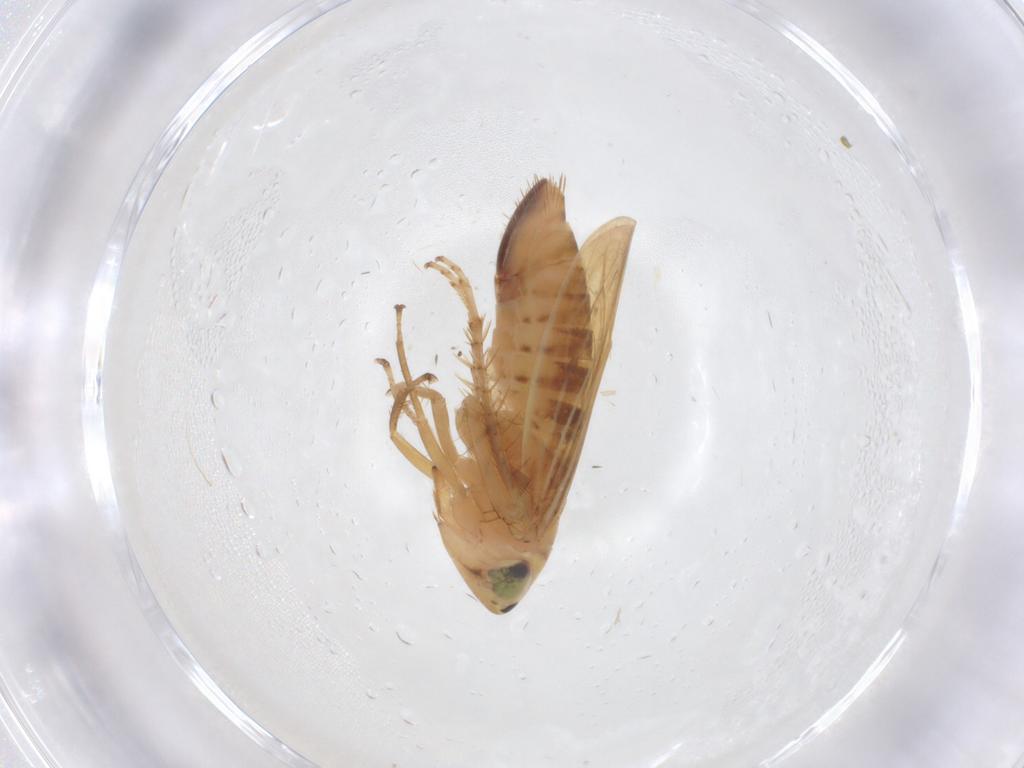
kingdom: Animalia
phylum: Arthropoda
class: Insecta
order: Hemiptera
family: Cicadellidae
